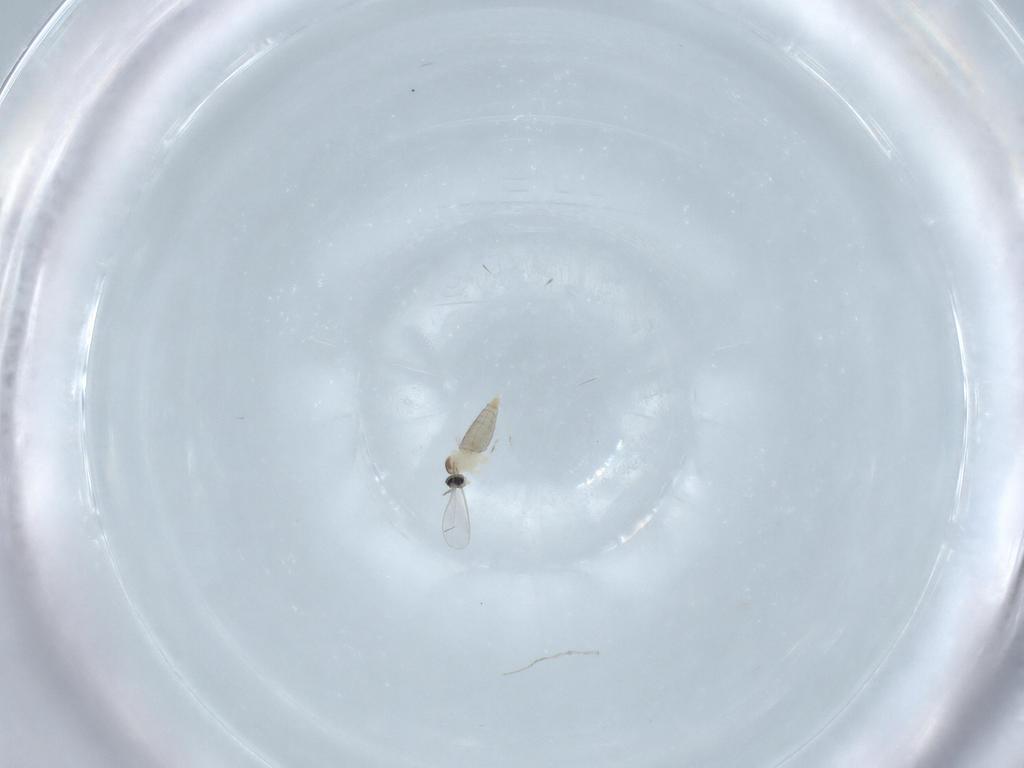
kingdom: Animalia
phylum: Arthropoda
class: Insecta
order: Diptera
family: Cecidomyiidae
